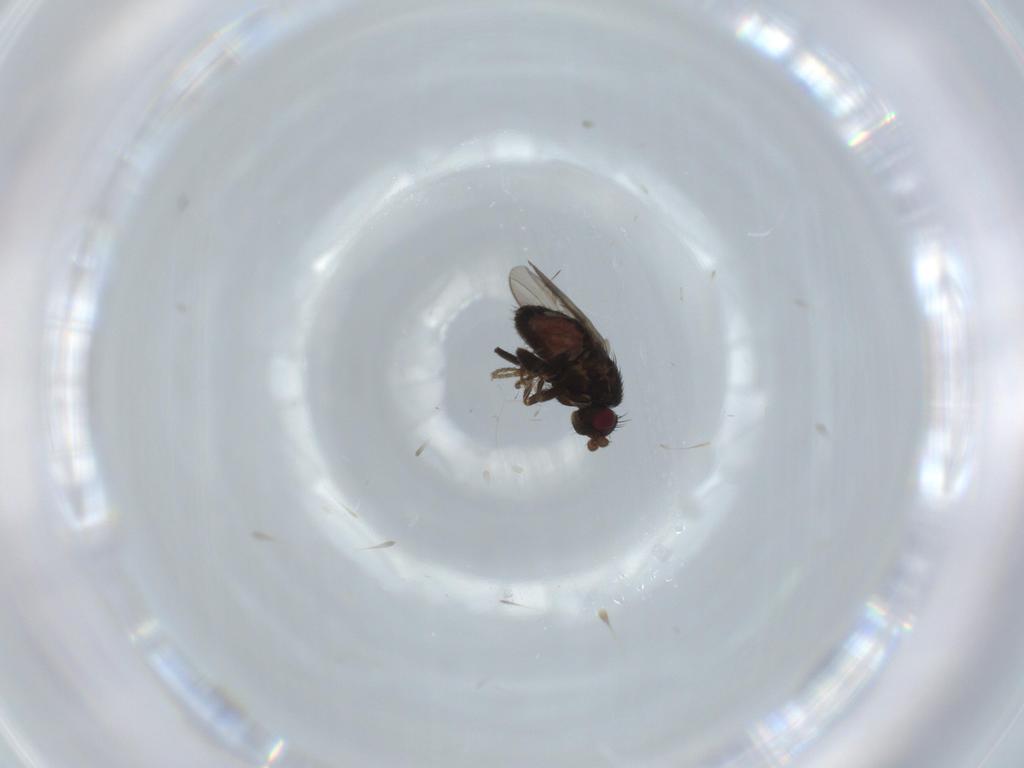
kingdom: Animalia
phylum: Arthropoda
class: Insecta
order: Diptera
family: Sphaeroceridae
